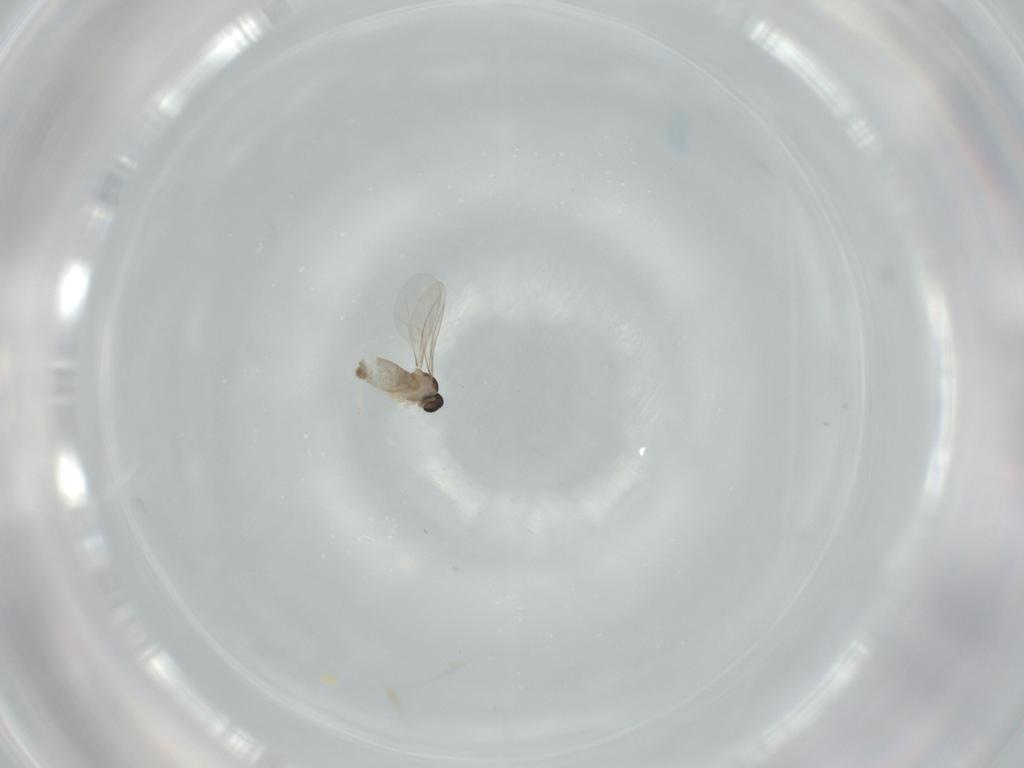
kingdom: Animalia
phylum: Arthropoda
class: Insecta
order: Diptera
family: Cecidomyiidae
